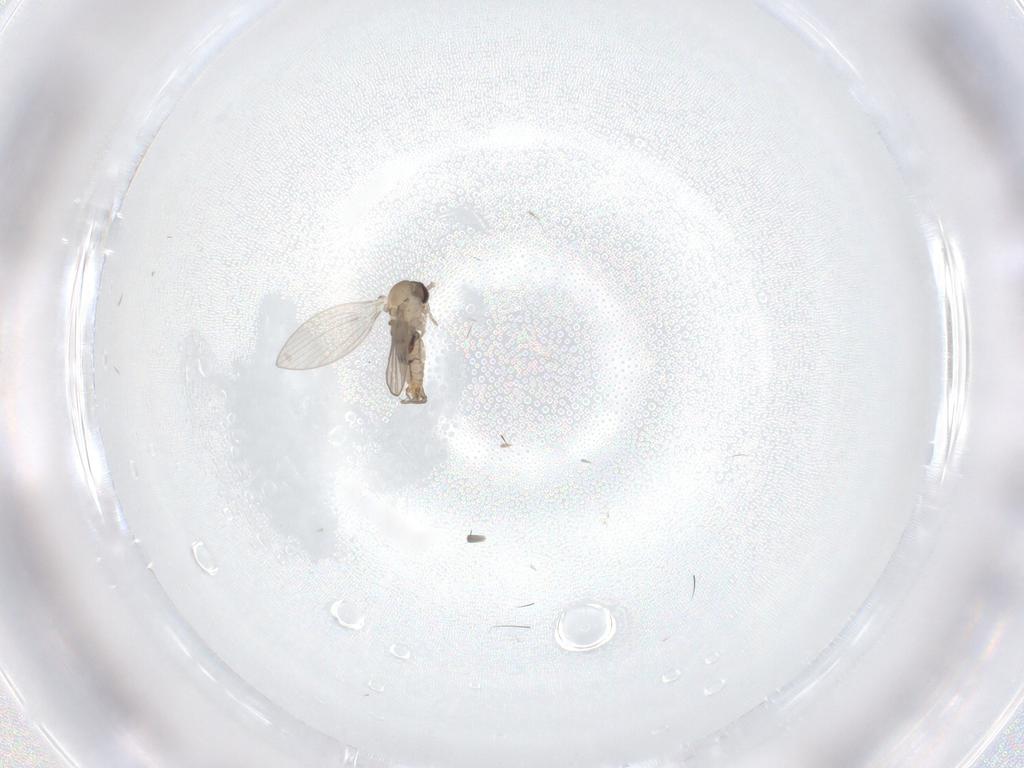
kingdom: Animalia
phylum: Arthropoda
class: Insecta
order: Diptera
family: Psychodidae
